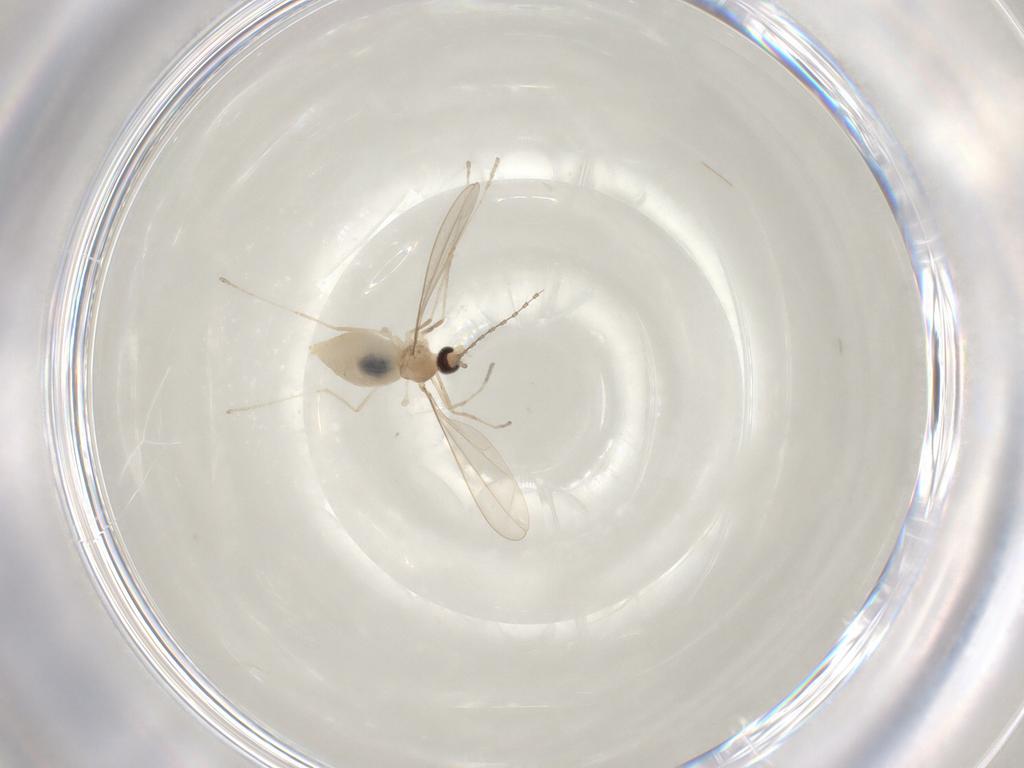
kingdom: Animalia
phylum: Arthropoda
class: Insecta
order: Diptera
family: Cecidomyiidae
